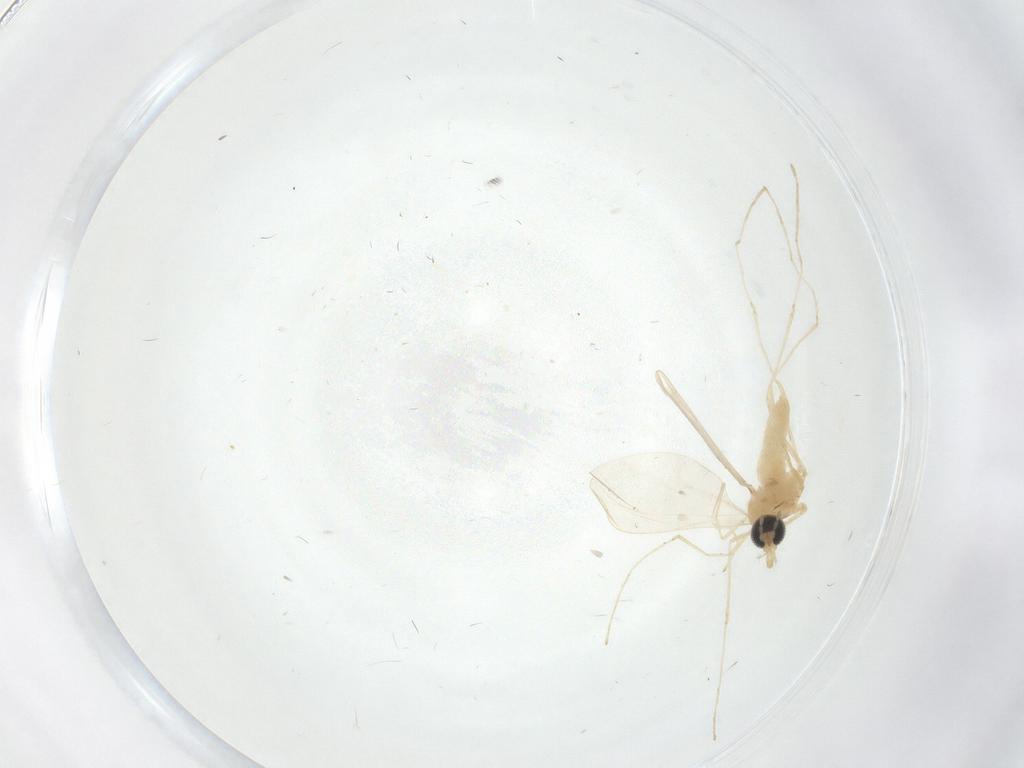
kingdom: Animalia
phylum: Arthropoda
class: Insecta
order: Diptera
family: Cecidomyiidae
